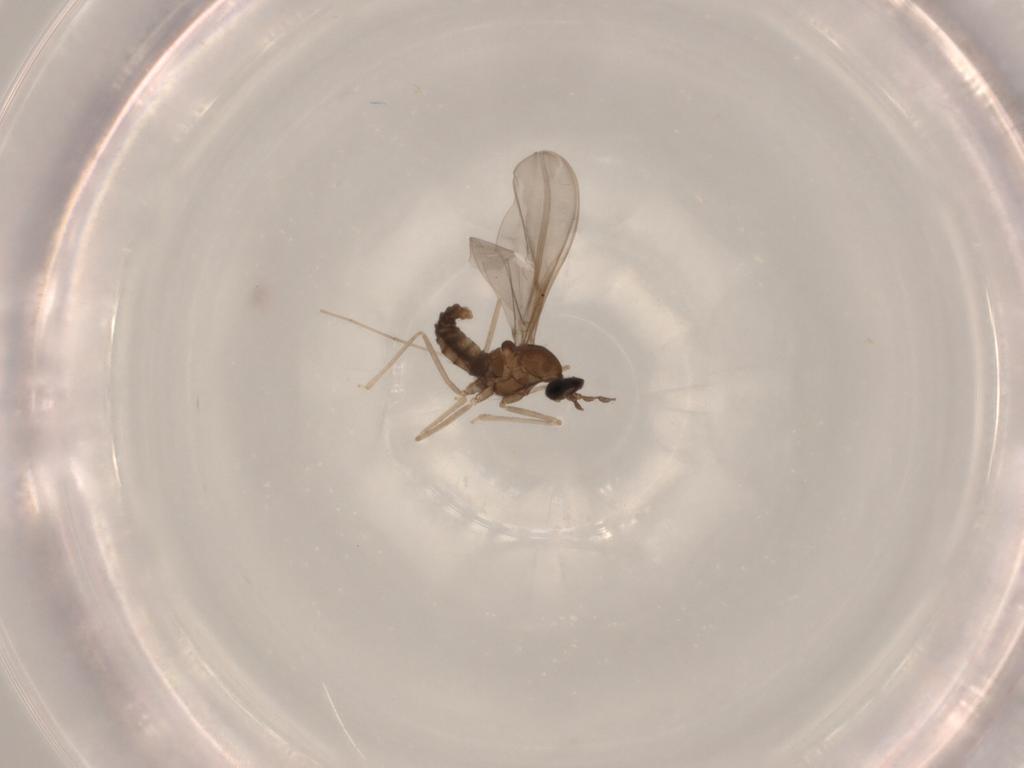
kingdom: Animalia
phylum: Arthropoda
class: Insecta
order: Diptera
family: Cecidomyiidae
